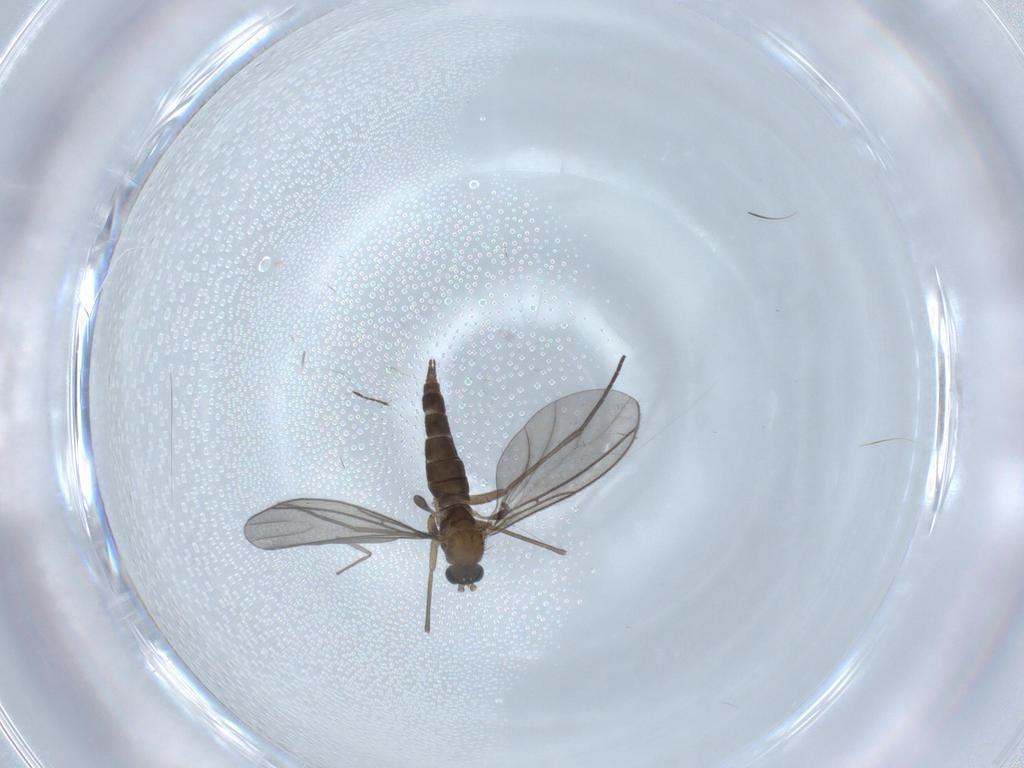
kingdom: Animalia
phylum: Arthropoda
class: Insecta
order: Diptera
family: Sciaridae
